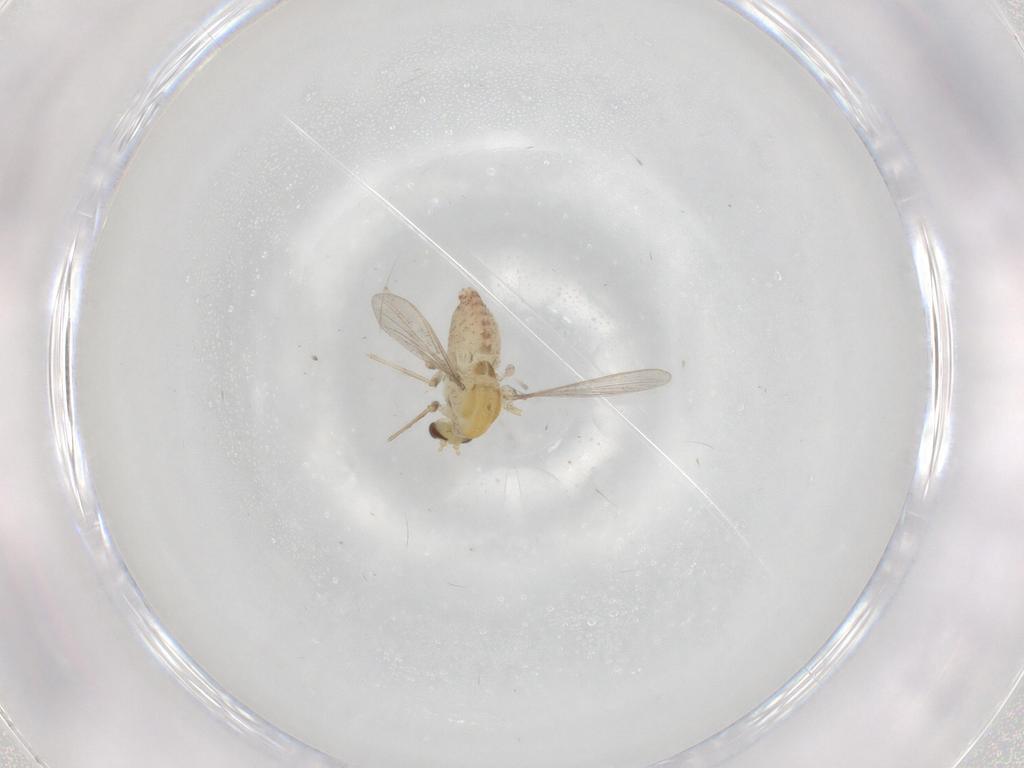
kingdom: Animalia
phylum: Arthropoda
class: Insecta
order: Diptera
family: Chironomidae
